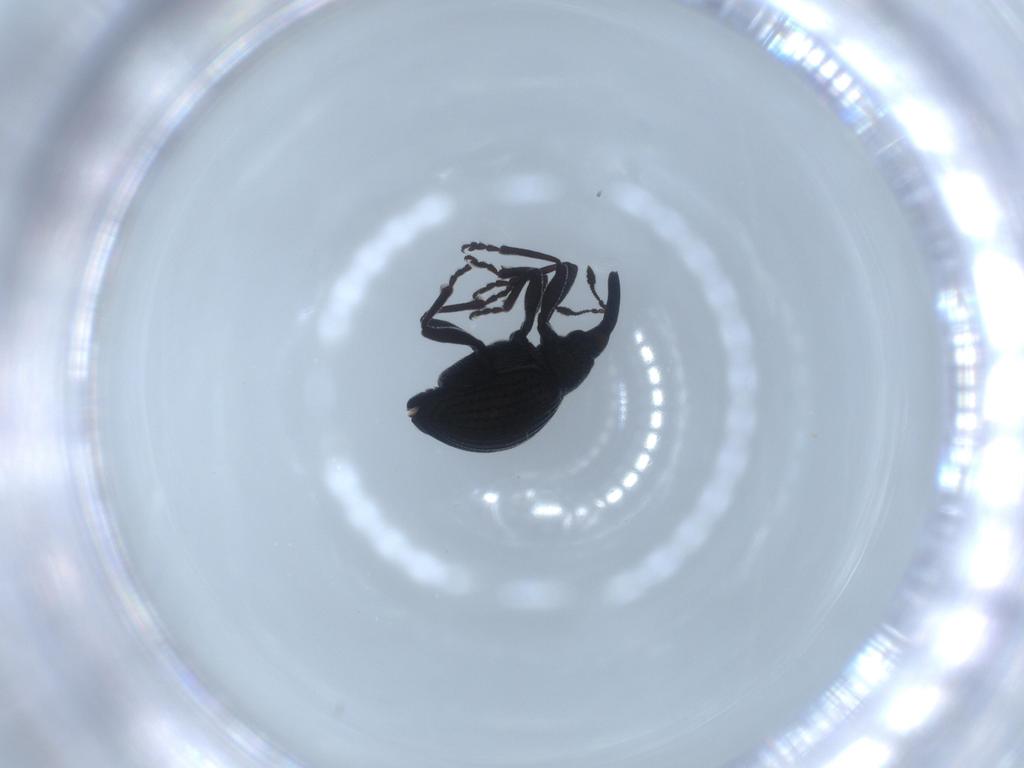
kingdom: Animalia
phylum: Arthropoda
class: Insecta
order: Coleoptera
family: Brentidae
